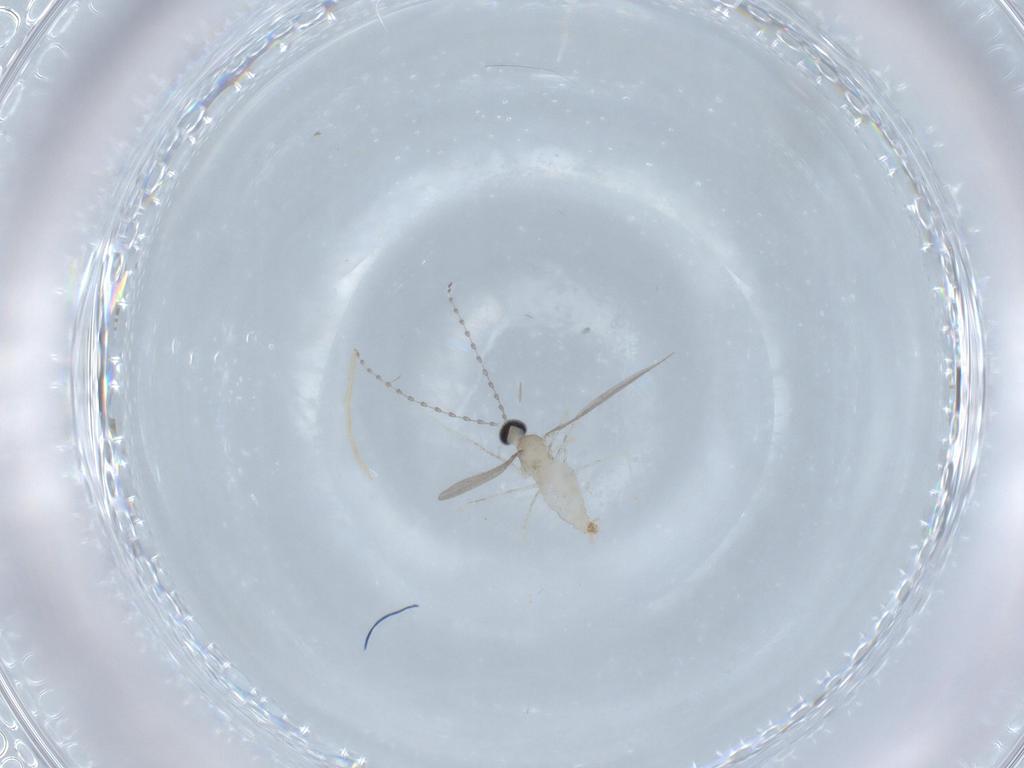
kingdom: Animalia
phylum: Arthropoda
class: Insecta
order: Diptera
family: Chironomidae
